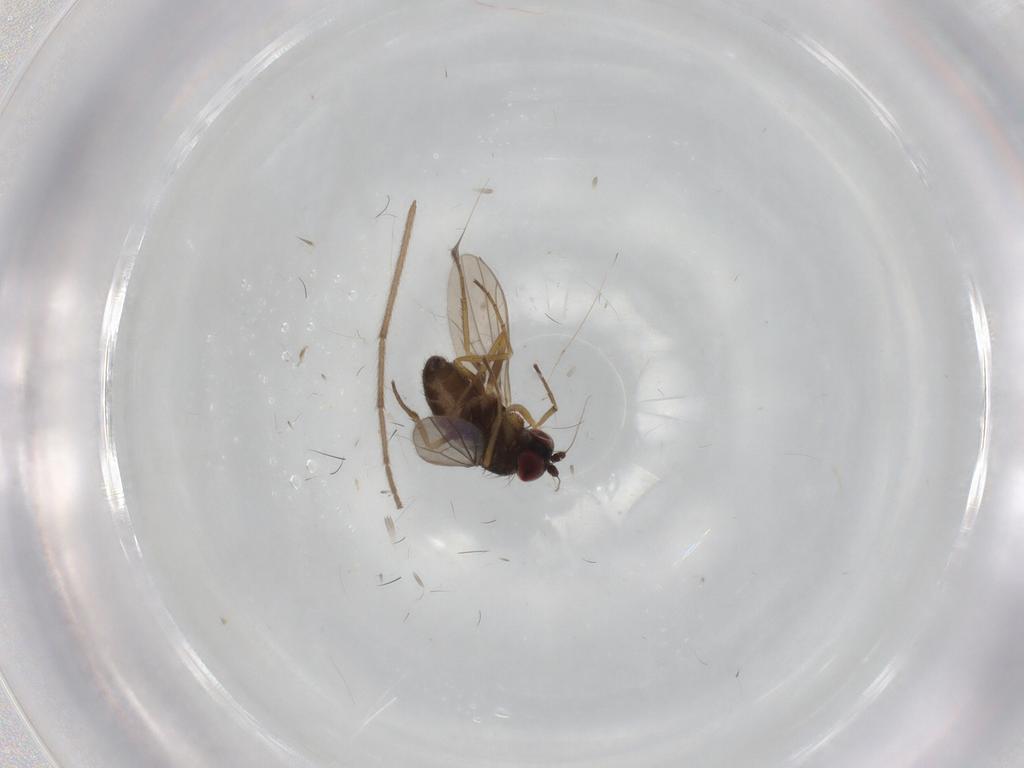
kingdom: Animalia
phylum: Arthropoda
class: Insecta
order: Diptera
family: Dolichopodidae
